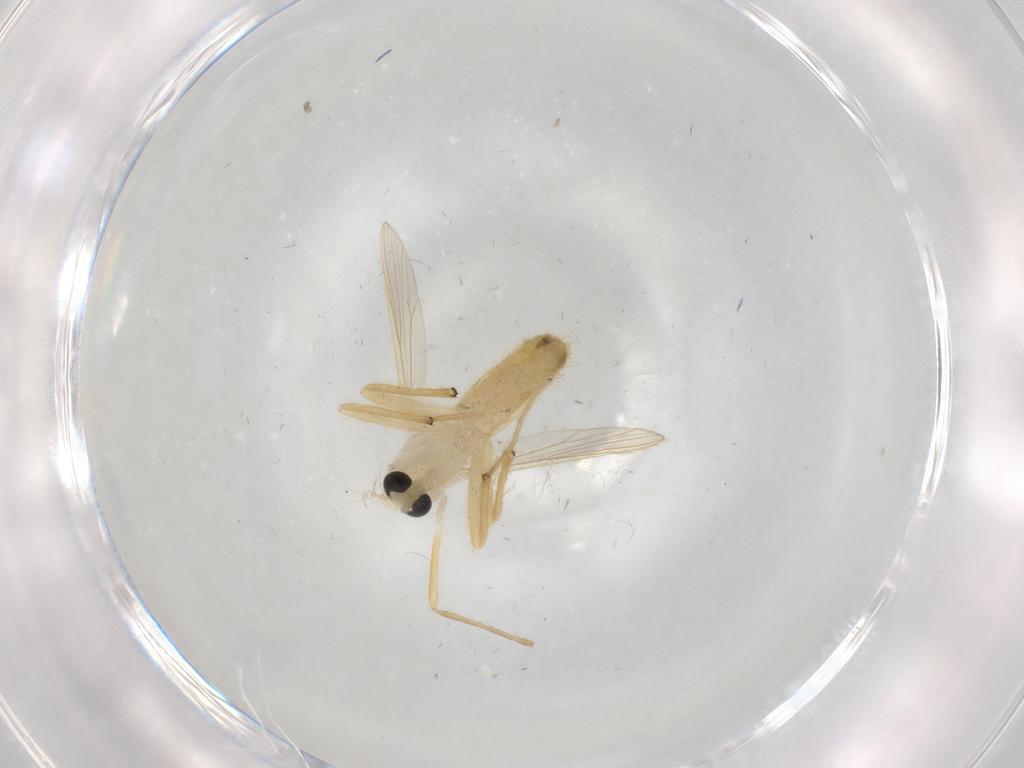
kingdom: Animalia
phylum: Arthropoda
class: Insecta
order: Diptera
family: Chironomidae
